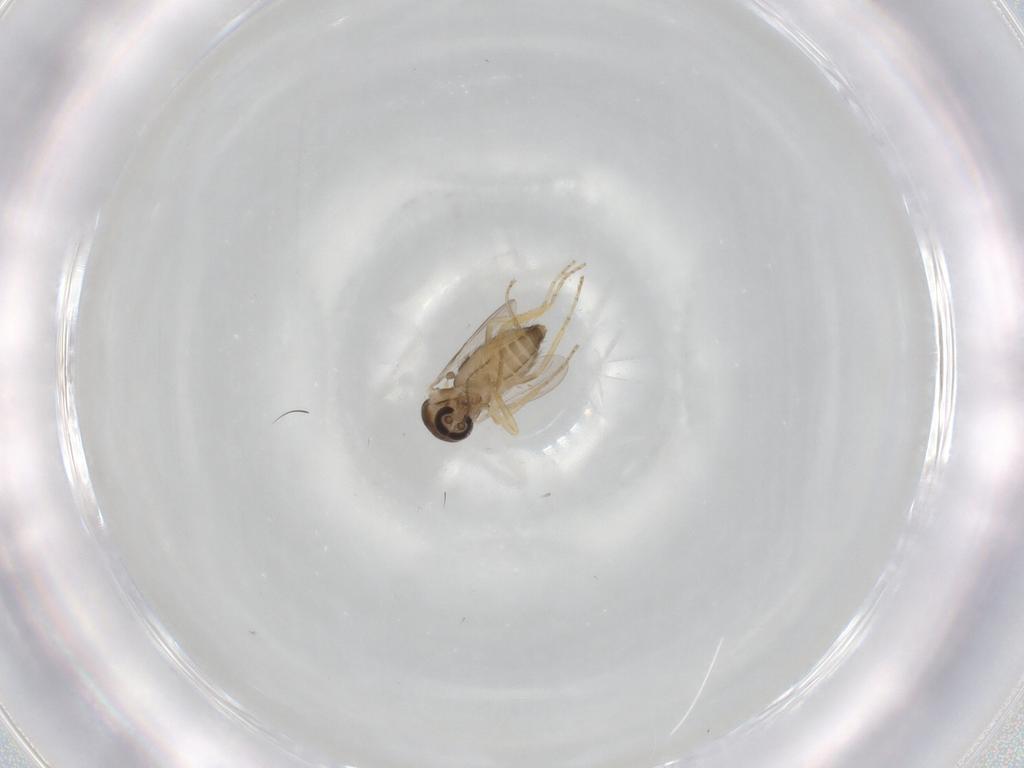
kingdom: Animalia
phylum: Arthropoda
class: Insecta
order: Diptera
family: Ceratopogonidae
